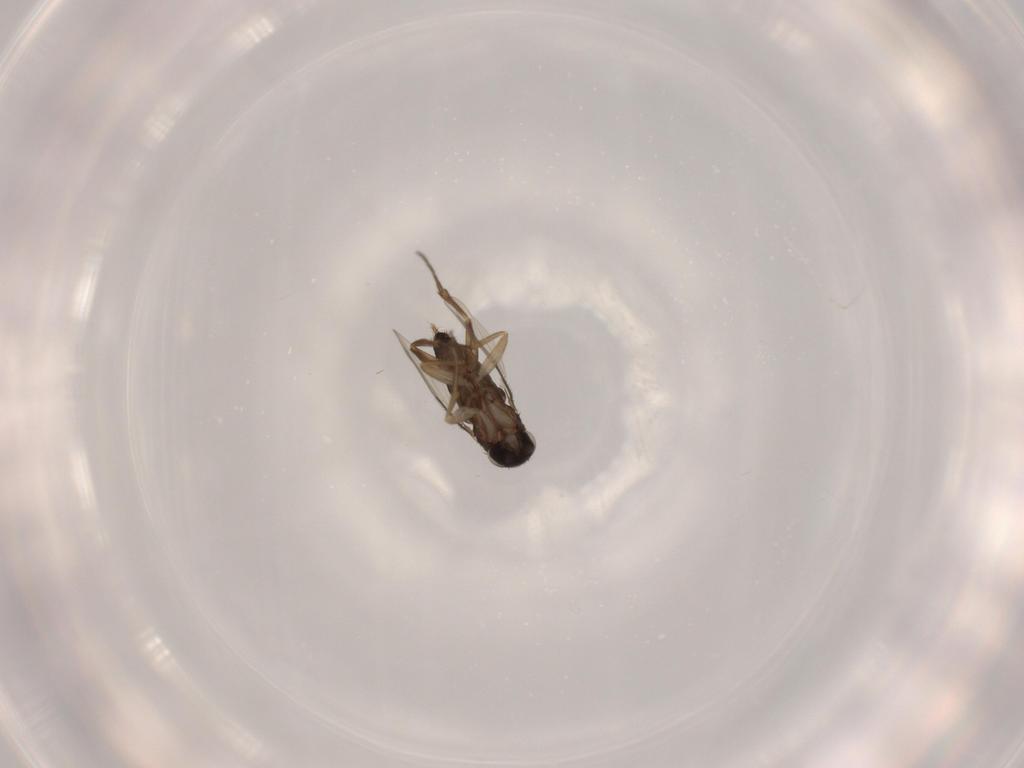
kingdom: Animalia
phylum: Arthropoda
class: Insecta
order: Diptera
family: Phoridae
